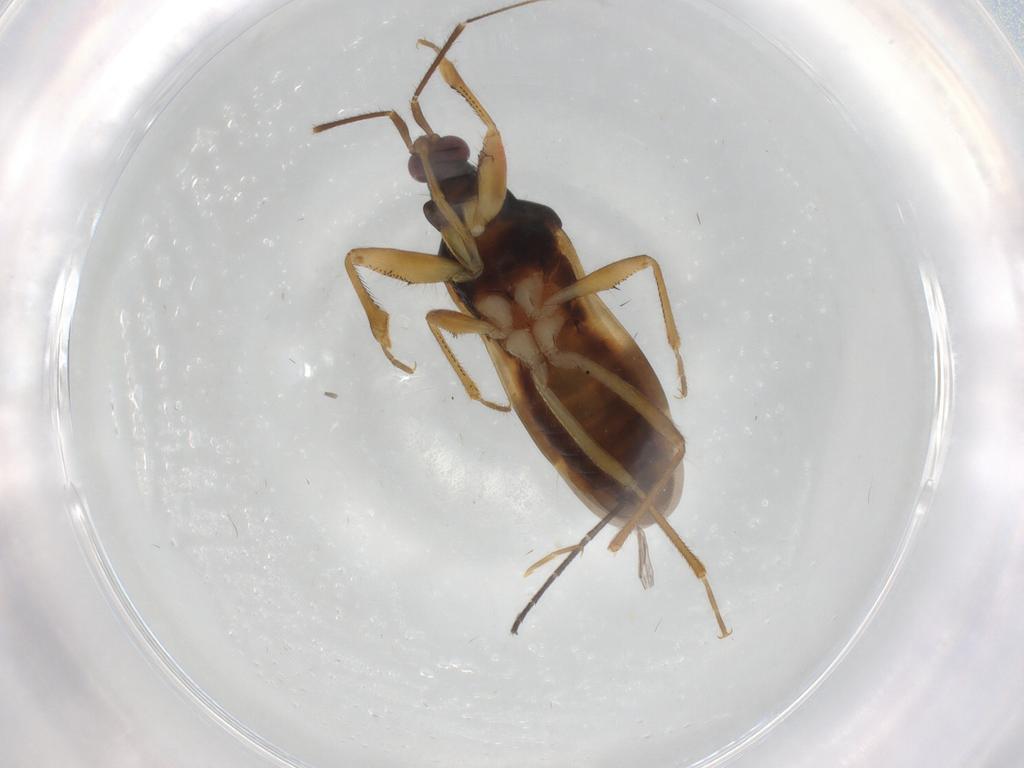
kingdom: Animalia
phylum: Arthropoda
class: Insecta
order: Hemiptera
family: Nabidae
